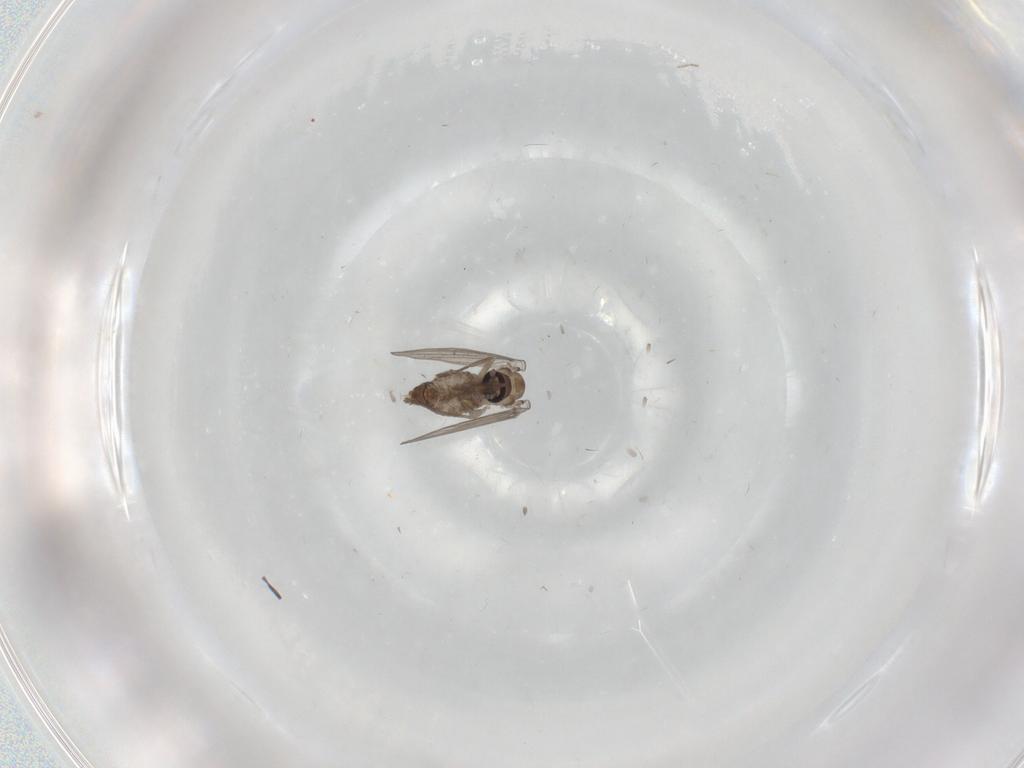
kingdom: Animalia
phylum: Arthropoda
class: Insecta
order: Diptera
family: Psychodidae
